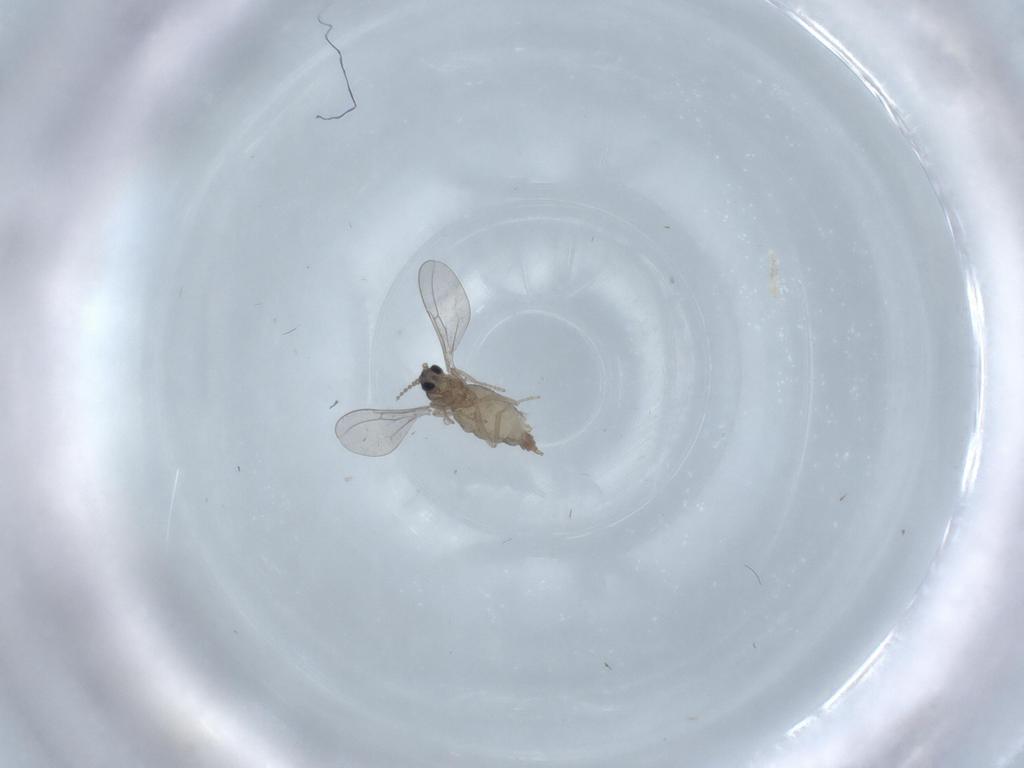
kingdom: Animalia
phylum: Arthropoda
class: Insecta
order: Diptera
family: Cecidomyiidae
